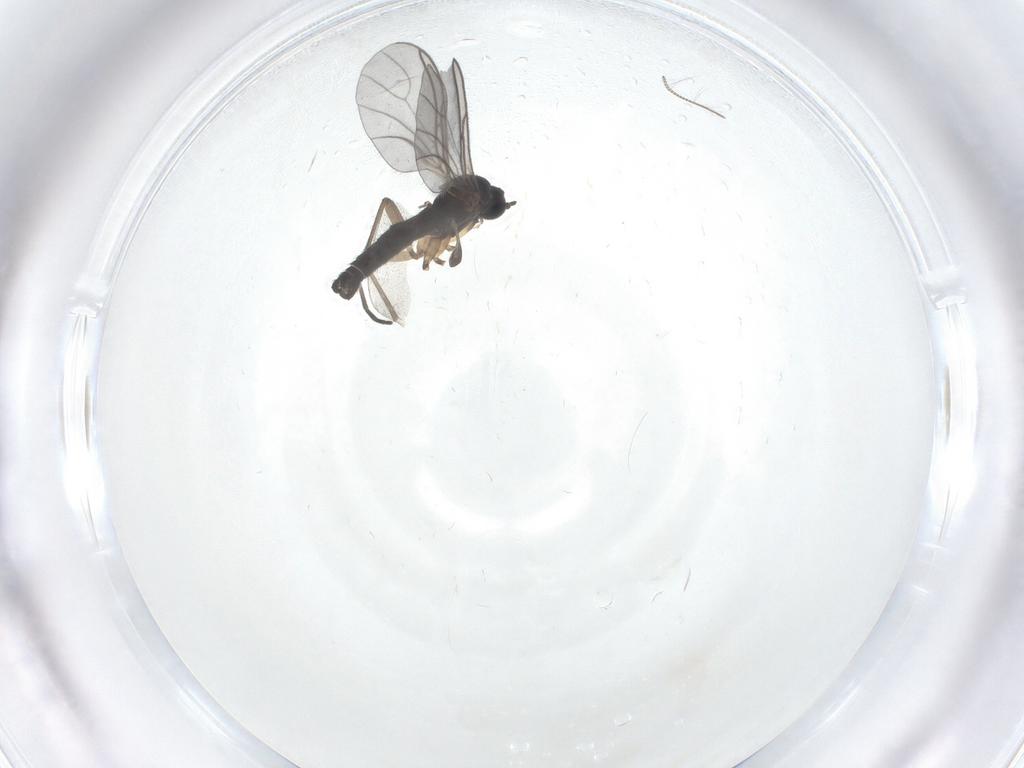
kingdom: Animalia
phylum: Arthropoda
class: Insecta
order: Diptera
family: Sciaridae
